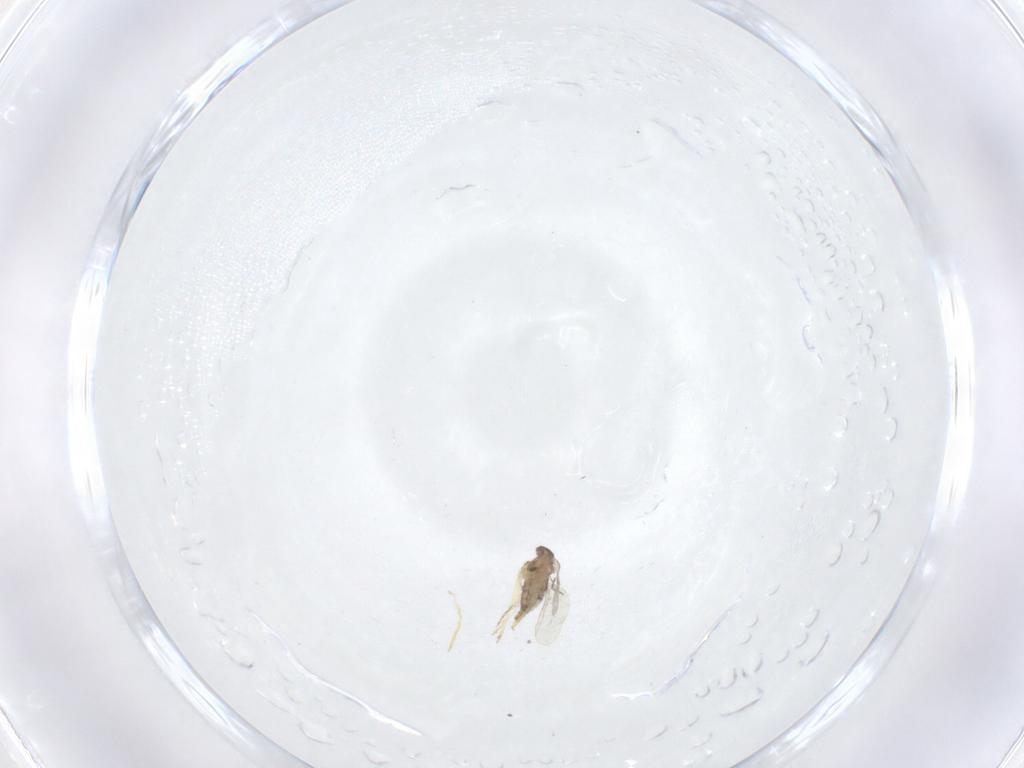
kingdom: Animalia
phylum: Arthropoda
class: Insecta
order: Diptera
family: Cecidomyiidae
